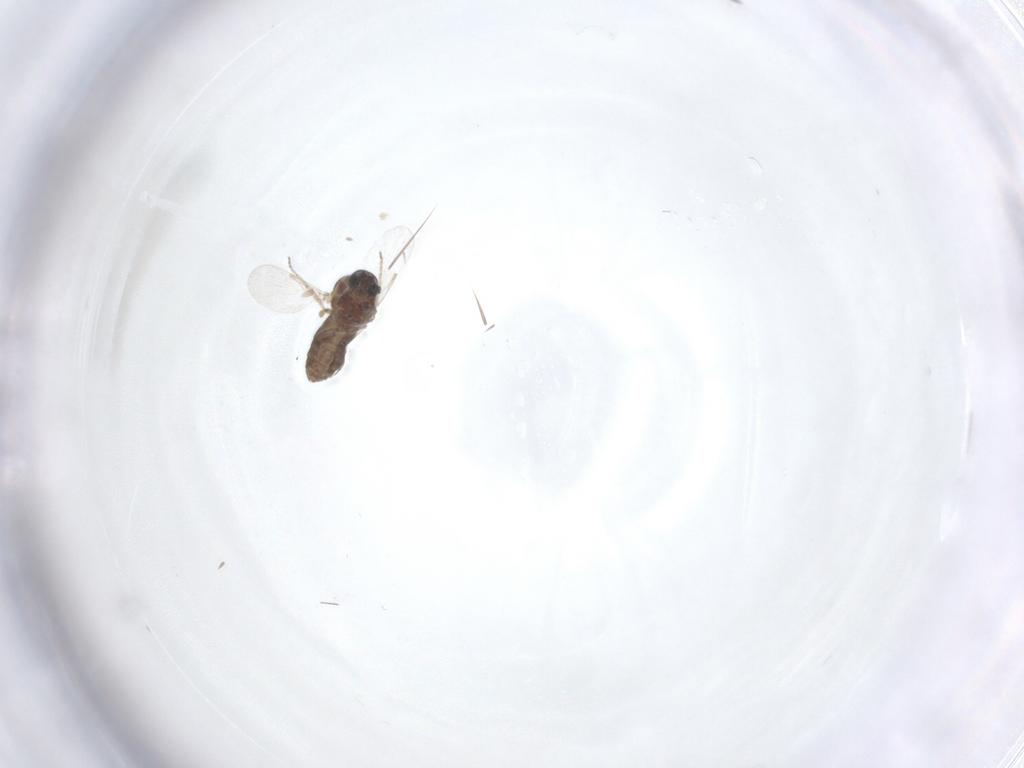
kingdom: Animalia
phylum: Arthropoda
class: Insecta
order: Diptera
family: Ceratopogonidae
